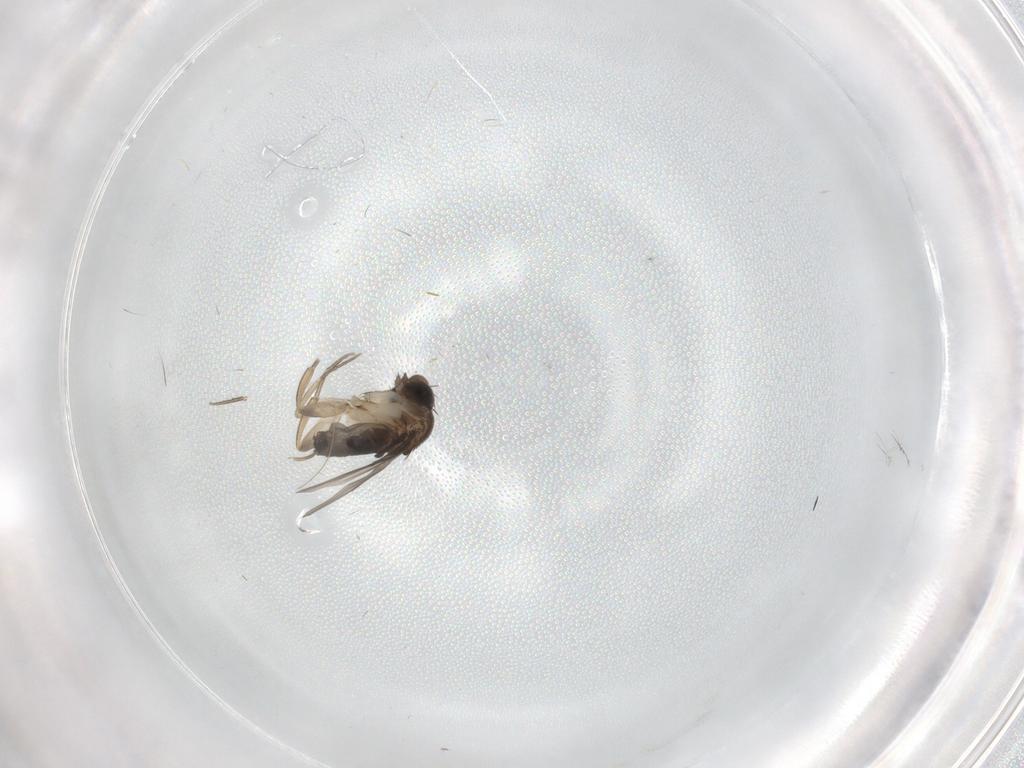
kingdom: Animalia
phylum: Arthropoda
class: Insecta
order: Diptera
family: Phoridae
